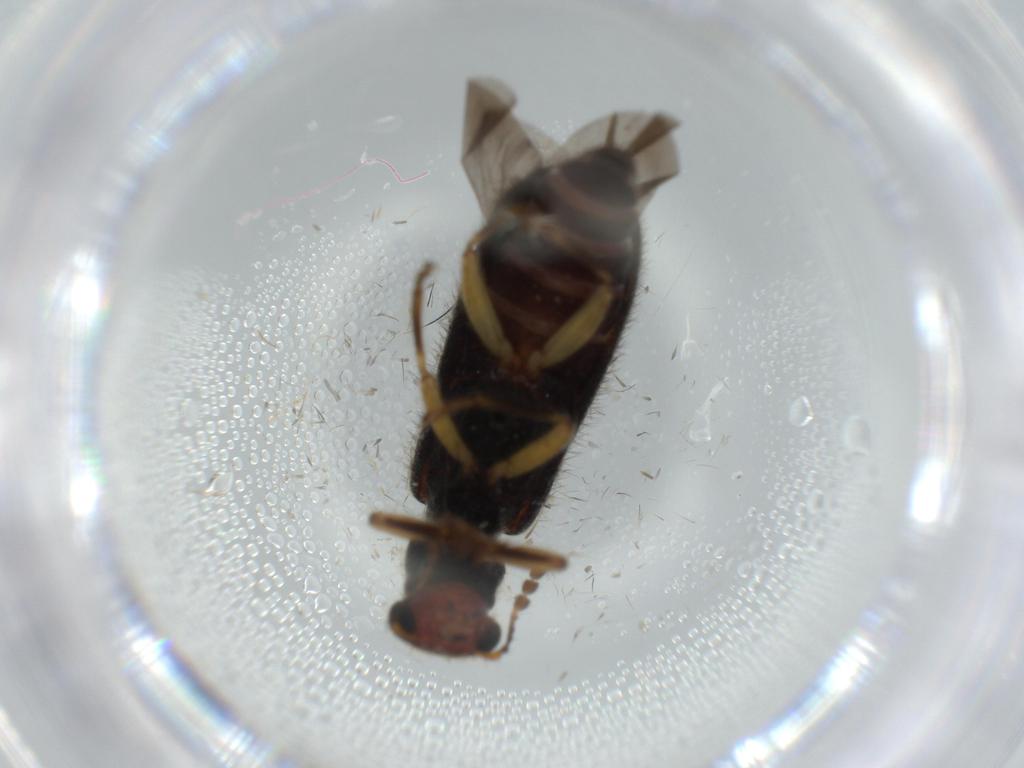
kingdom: Animalia
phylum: Arthropoda
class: Insecta
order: Coleoptera
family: Cleridae
